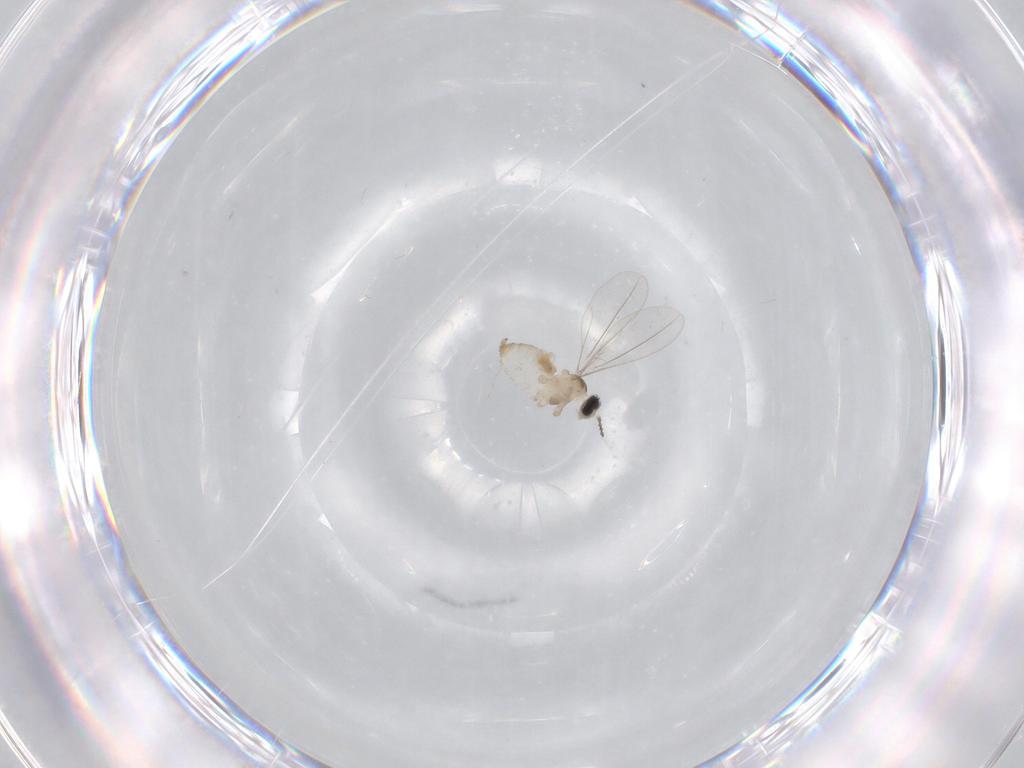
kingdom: Animalia
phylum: Arthropoda
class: Insecta
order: Diptera
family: Cecidomyiidae
